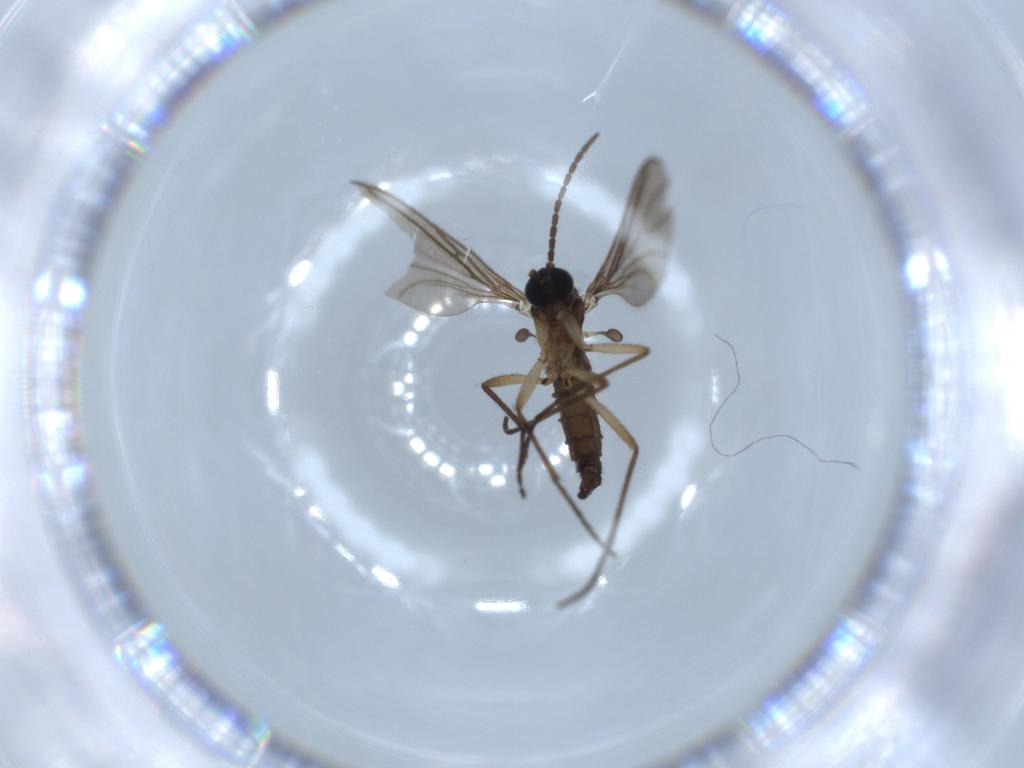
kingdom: Animalia
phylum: Arthropoda
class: Insecta
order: Diptera
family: Sciaridae
